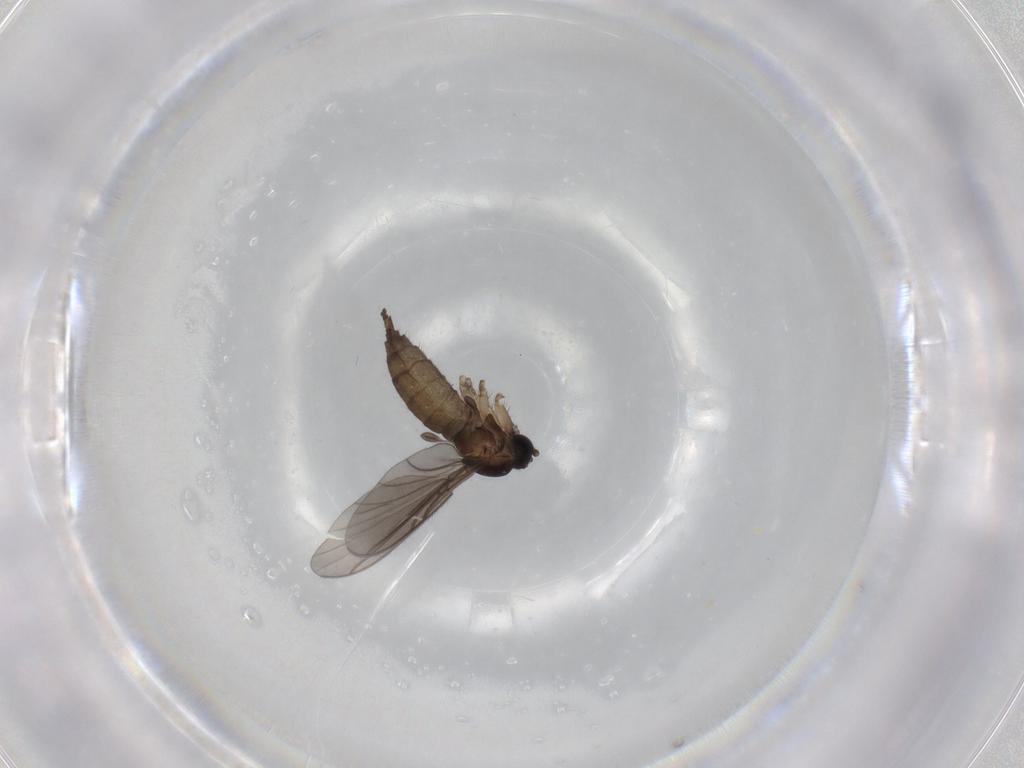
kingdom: Animalia
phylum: Arthropoda
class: Insecta
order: Diptera
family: Sciaridae
